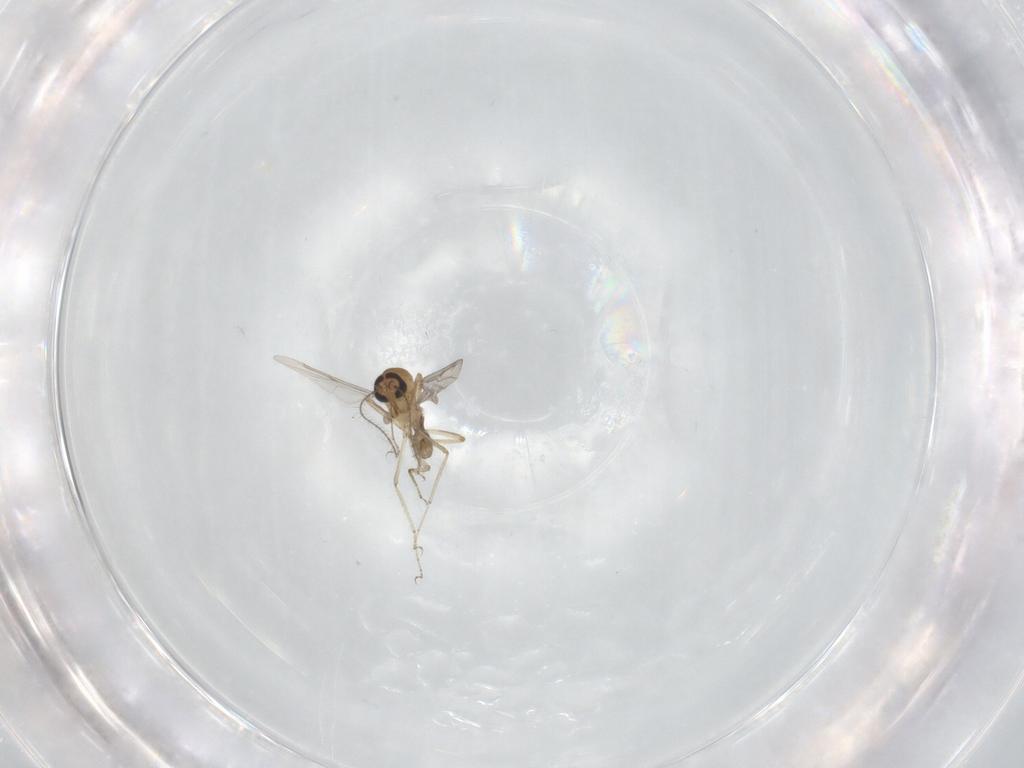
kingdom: Animalia
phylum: Arthropoda
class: Insecta
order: Diptera
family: Ceratopogonidae
